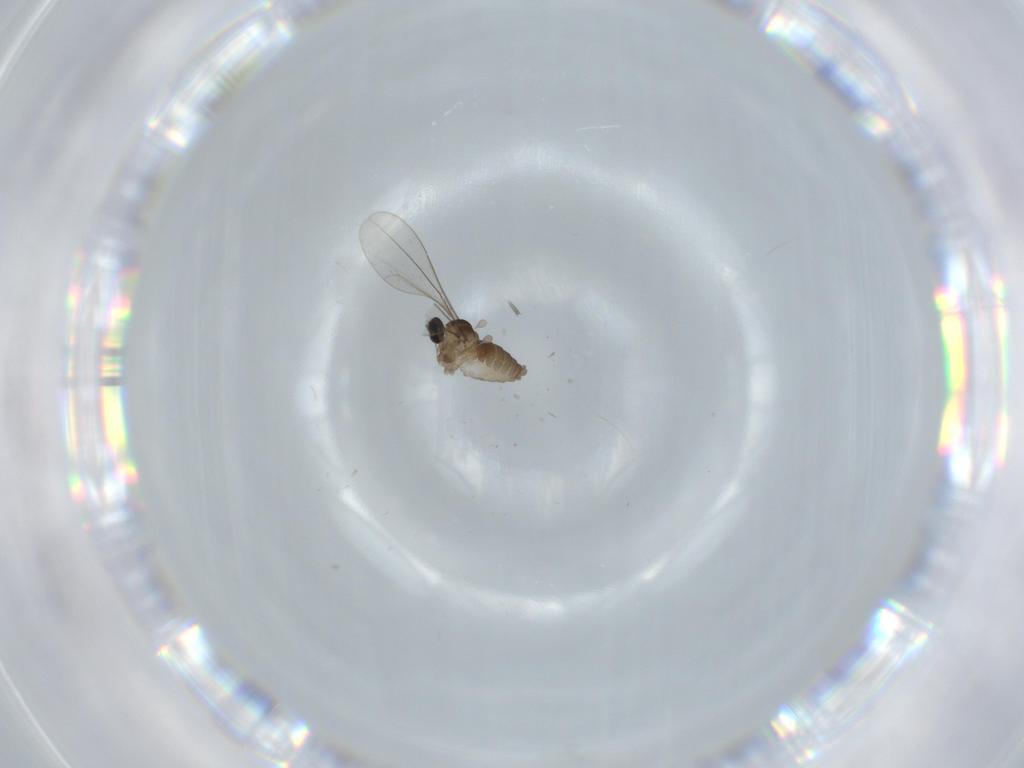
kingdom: Animalia
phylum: Arthropoda
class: Insecta
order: Diptera
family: Cecidomyiidae
